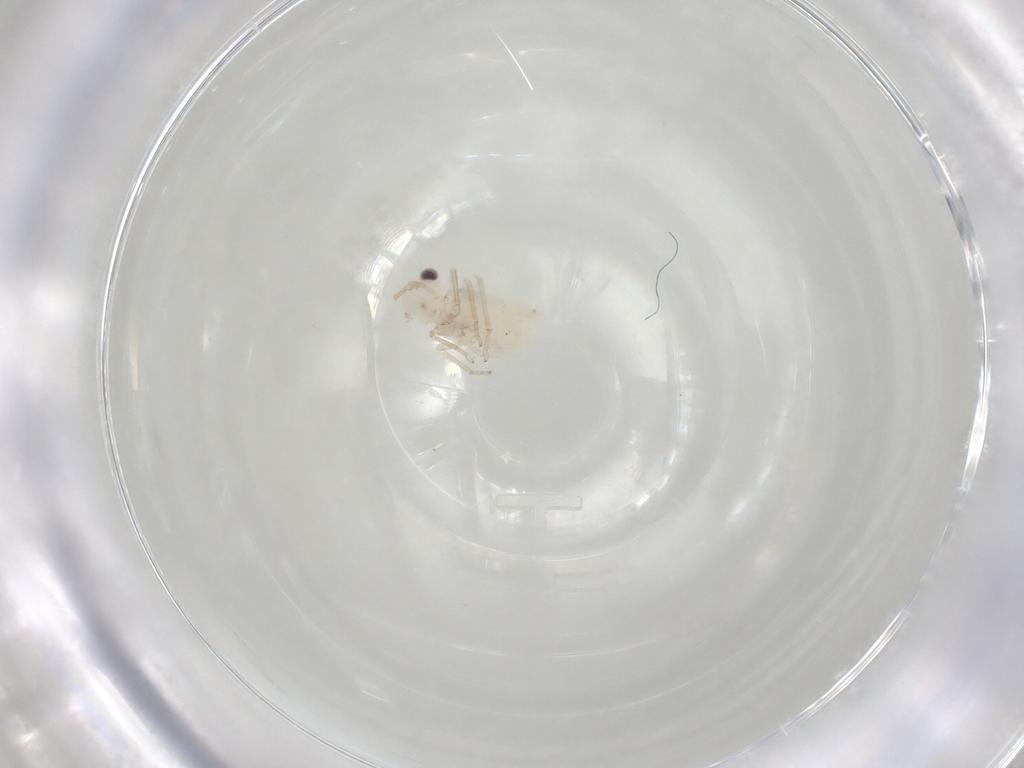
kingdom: Animalia
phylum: Arthropoda
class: Insecta
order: Psocodea
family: Caeciliusidae
